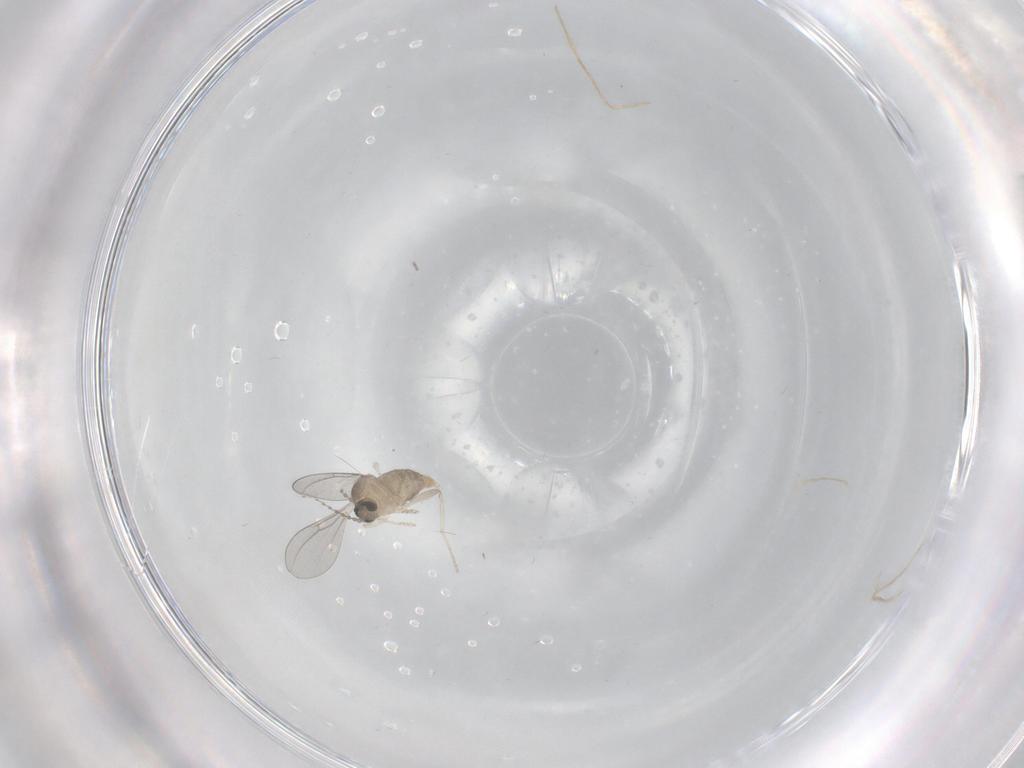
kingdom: Animalia
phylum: Arthropoda
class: Insecta
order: Diptera
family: Cecidomyiidae
